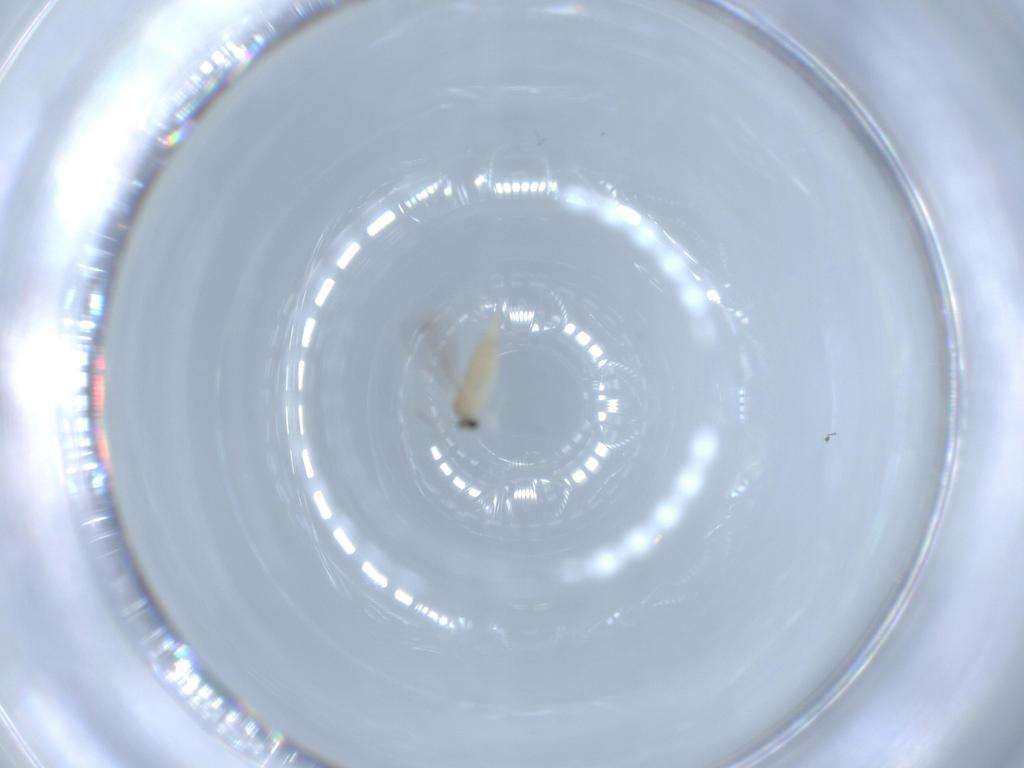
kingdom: Animalia
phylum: Arthropoda
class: Insecta
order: Diptera
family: Cecidomyiidae
